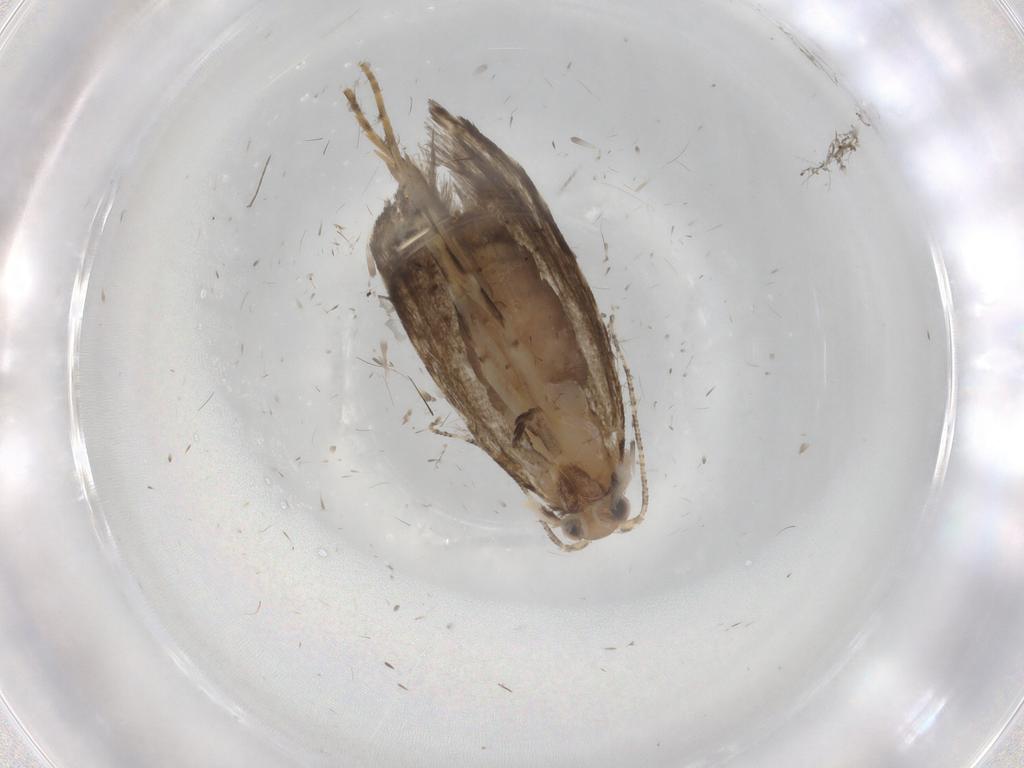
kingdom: Animalia
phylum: Arthropoda
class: Insecta
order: Lepidoptera
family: Tineidae
